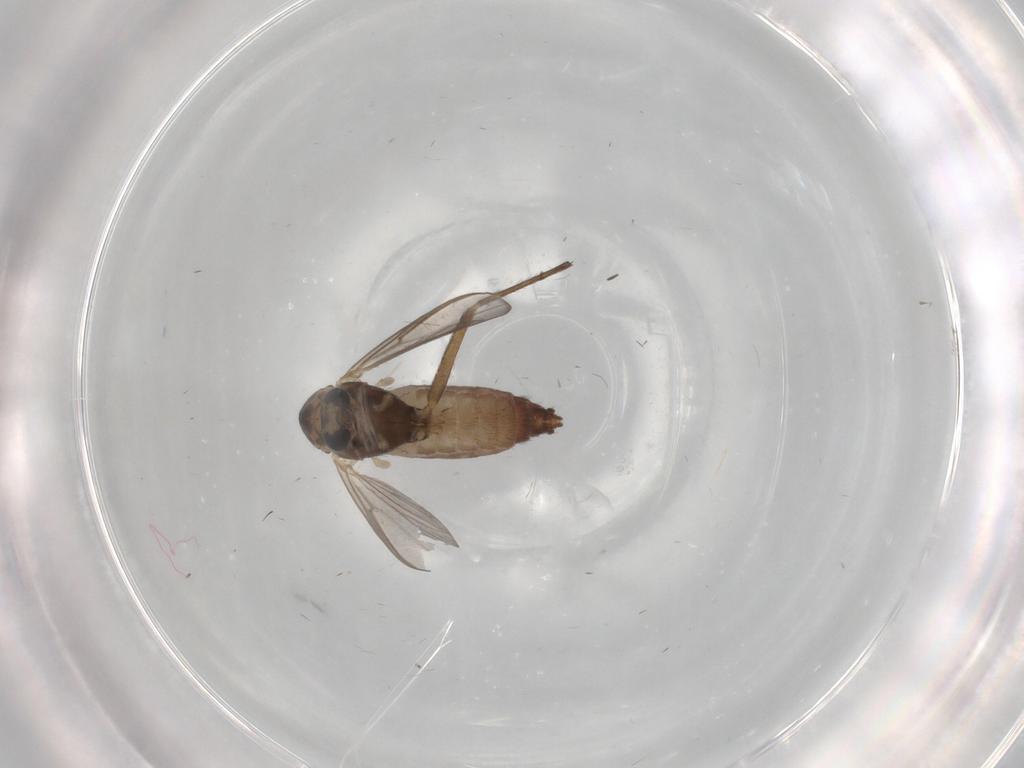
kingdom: Animalia
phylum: Arthropoda
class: Insecta
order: Diptera
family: Chironomidae
